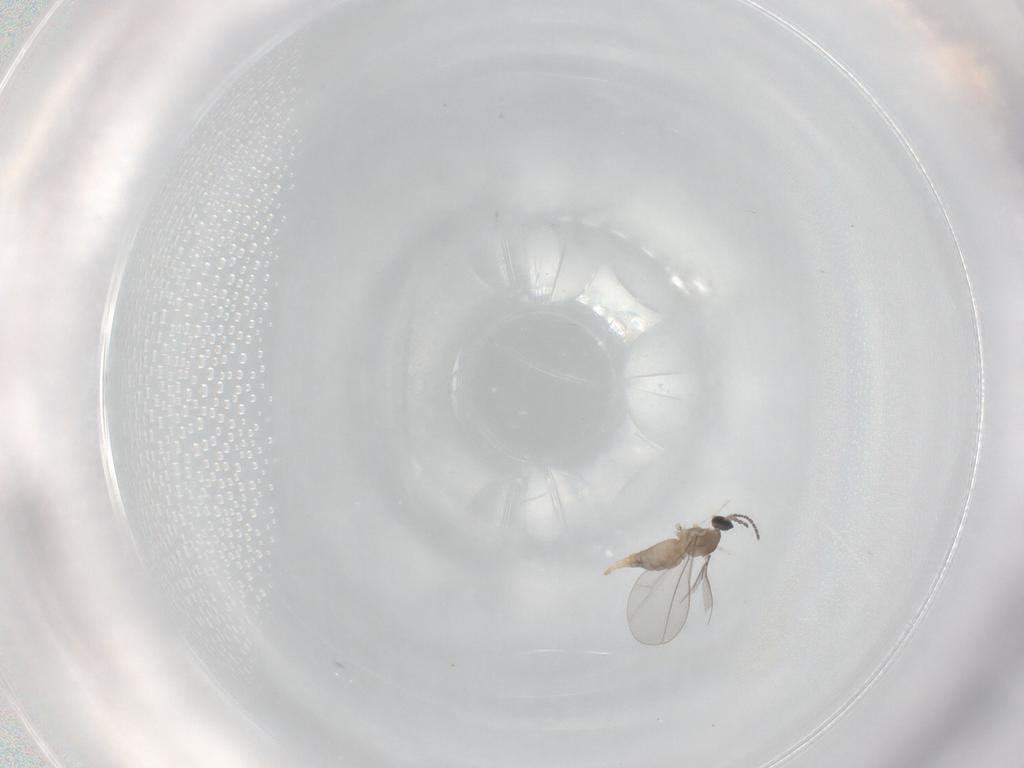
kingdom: Animalia
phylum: Arthropoda
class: Insecta
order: Diptera
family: Cecidomyiidae
